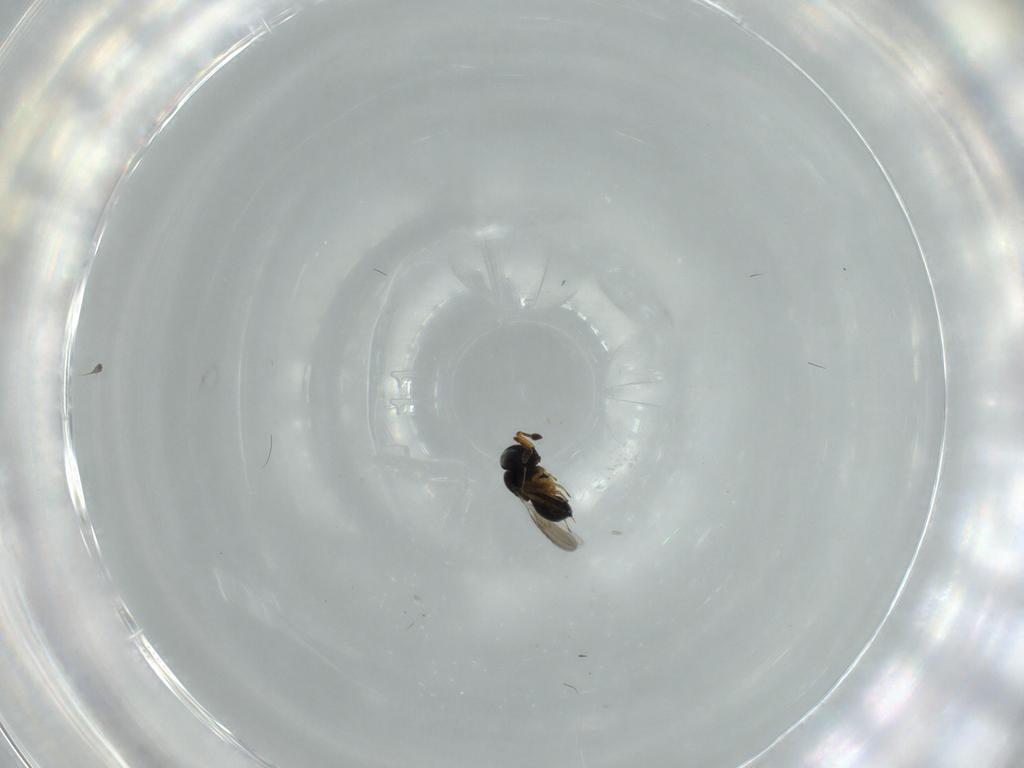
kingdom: Animalia
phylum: Arthropoda
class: Insecta
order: Hymenoptera
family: Scelionidae
